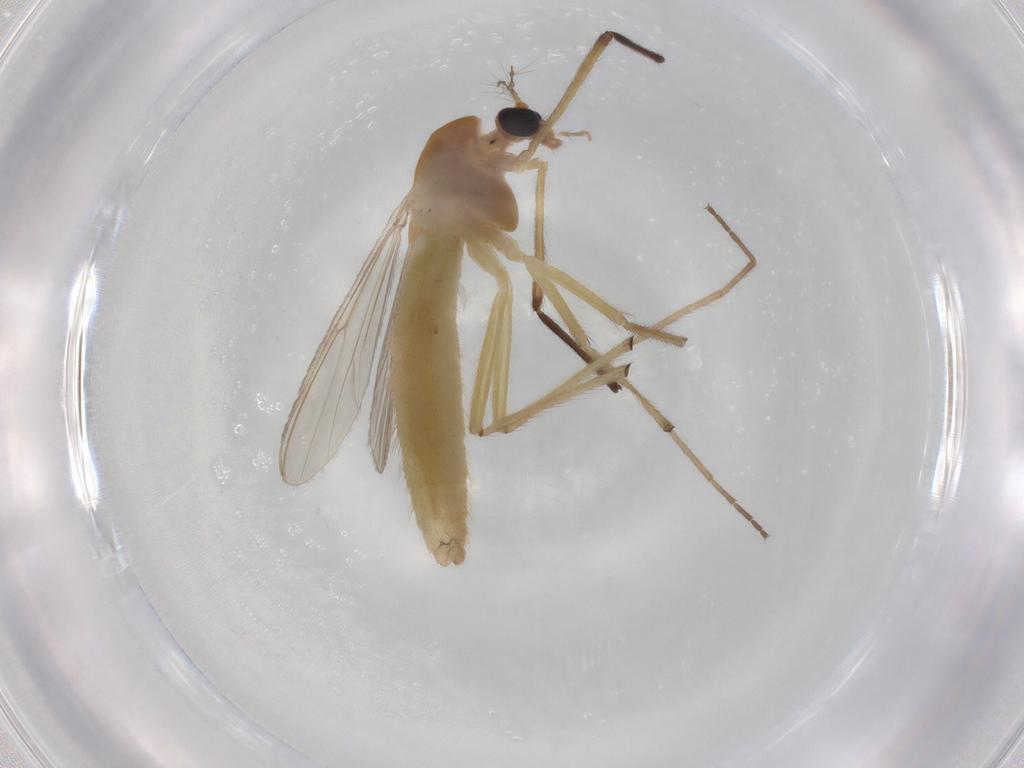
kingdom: Animalia
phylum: Arthropoda
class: Insecta
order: Diptera
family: Chironomidae
